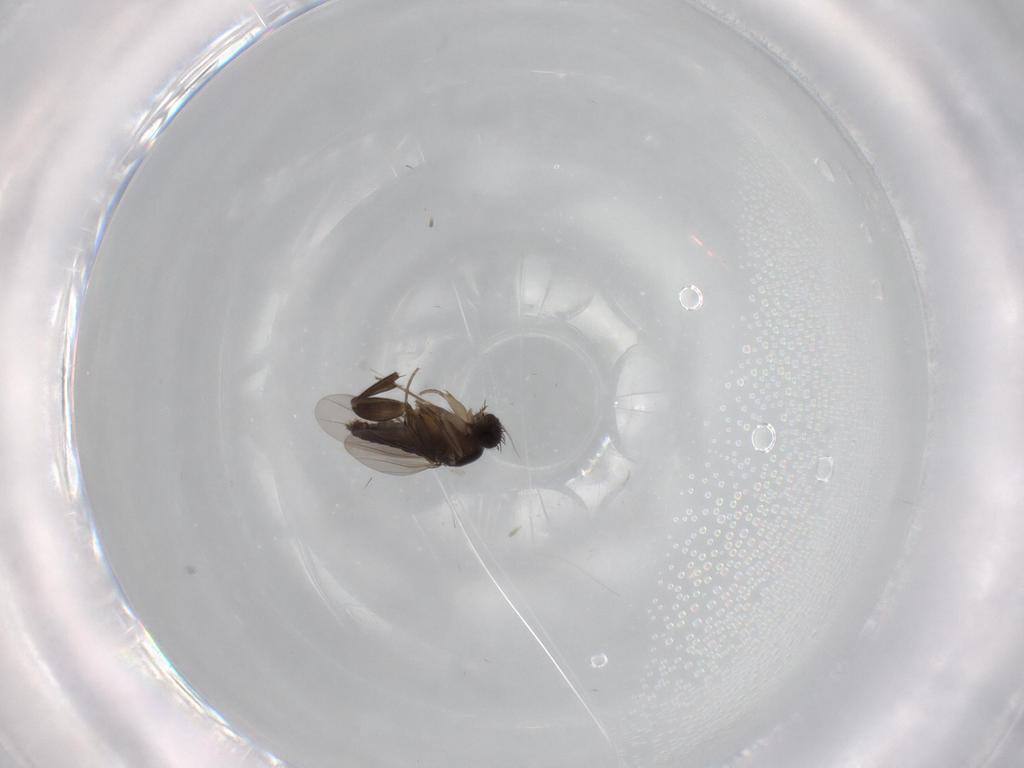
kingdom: Animalia
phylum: Arthropoda
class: Insecta
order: Diptera
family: Phoridae
